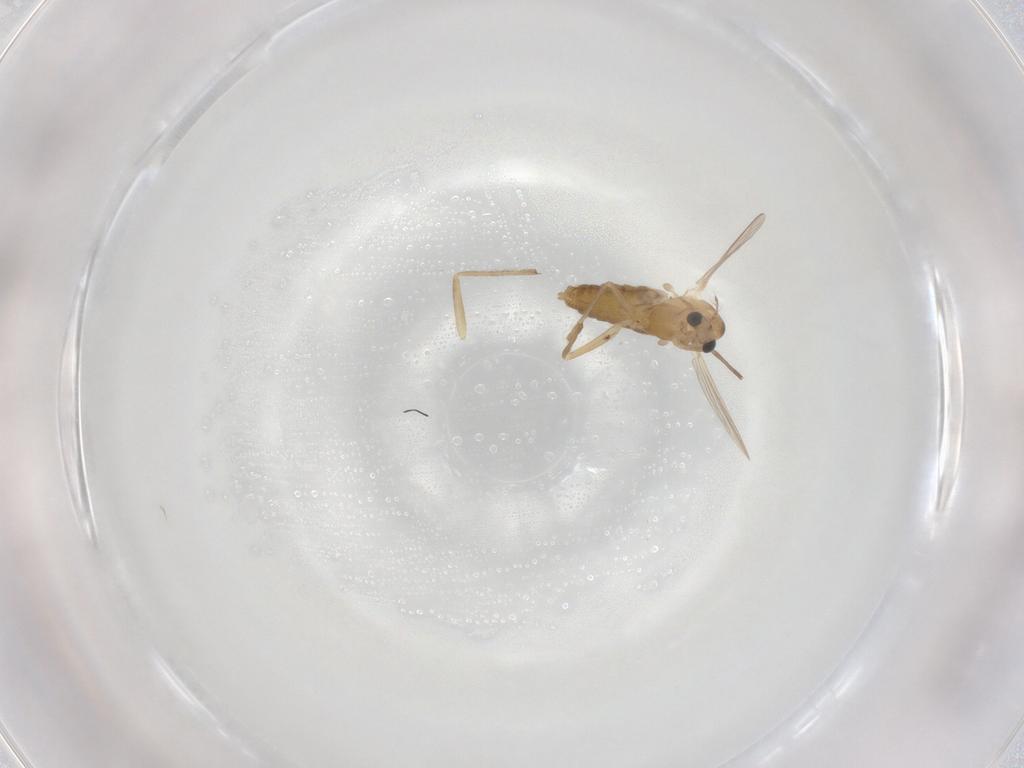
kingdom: Animalia
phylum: Arthropoda
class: Insecta
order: Diptera
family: Chironomidae
